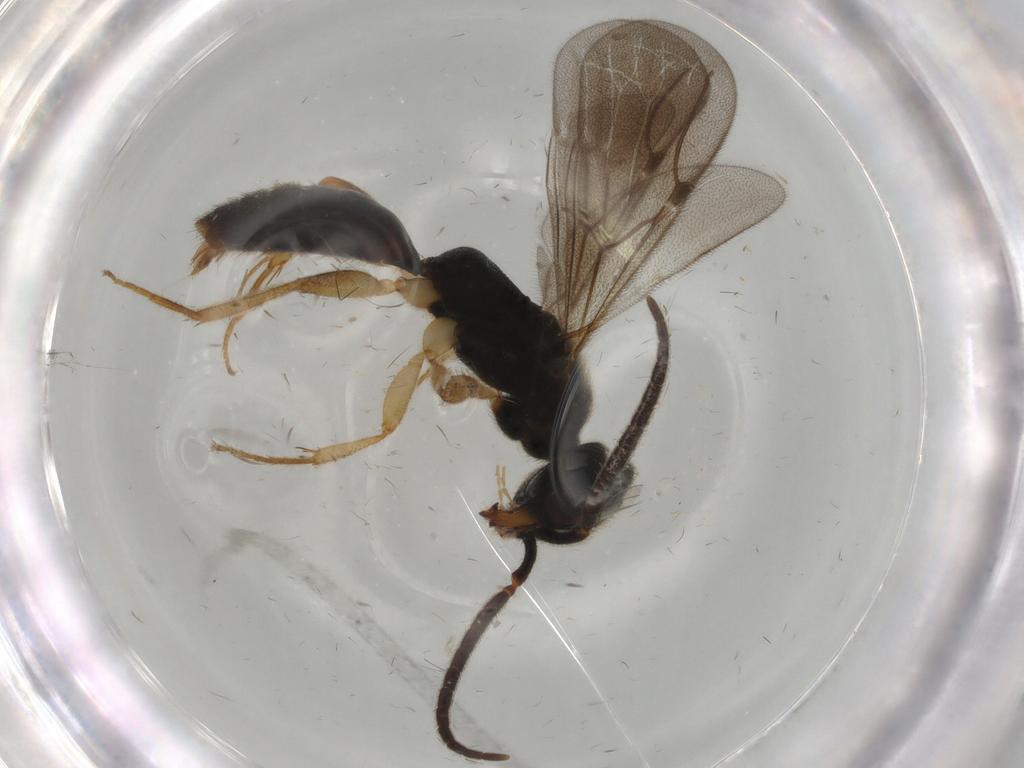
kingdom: Animalia
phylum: Arthropoda
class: Insecta
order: Hymenoptera
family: Bethylidae
